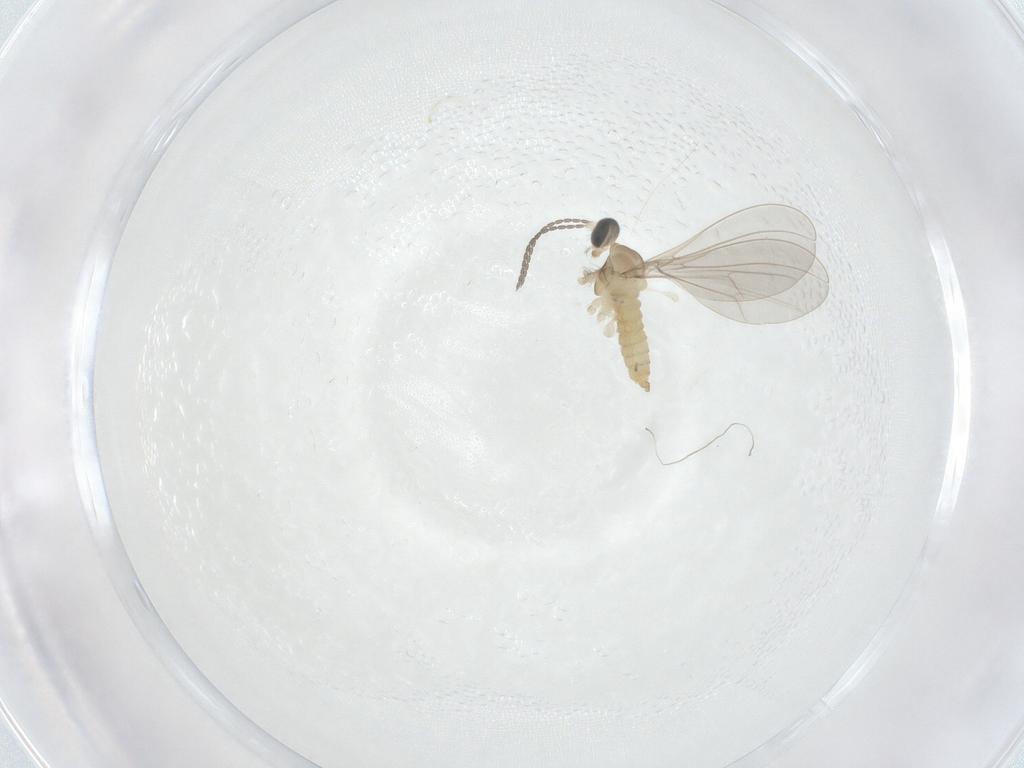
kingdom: Animalia
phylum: Arthropoda
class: Insecta
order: Diptera
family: Cecidomyiidae
